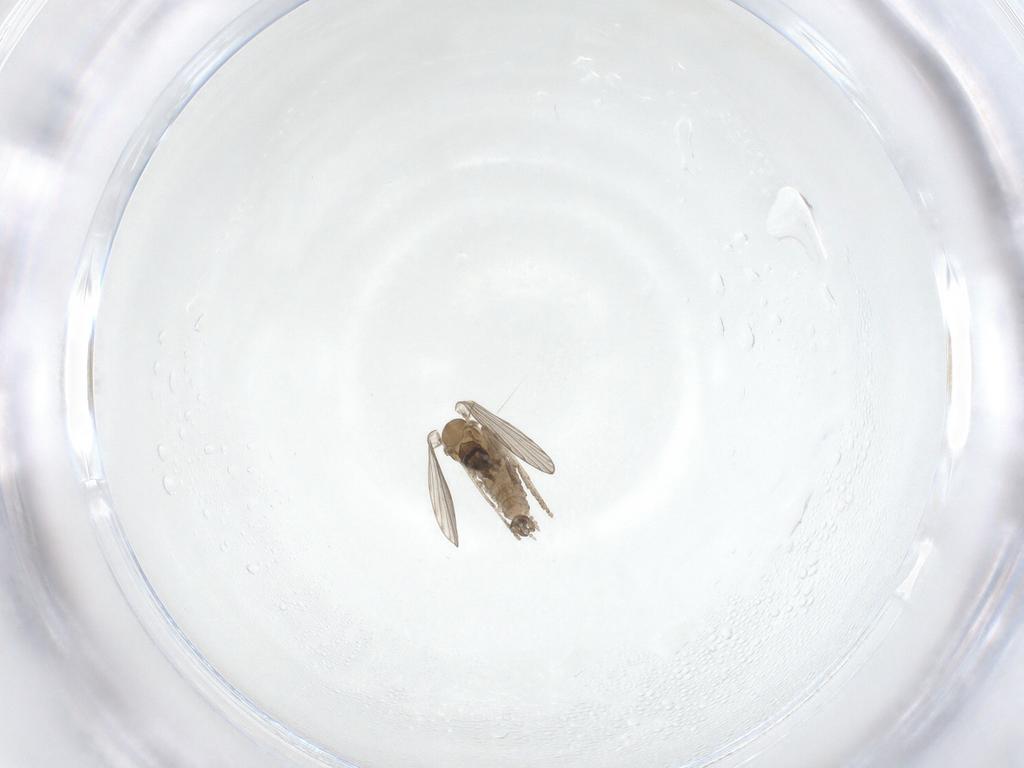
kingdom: Animalia
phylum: Arthropoda
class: Insecta
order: Diptera
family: Psychodidae
